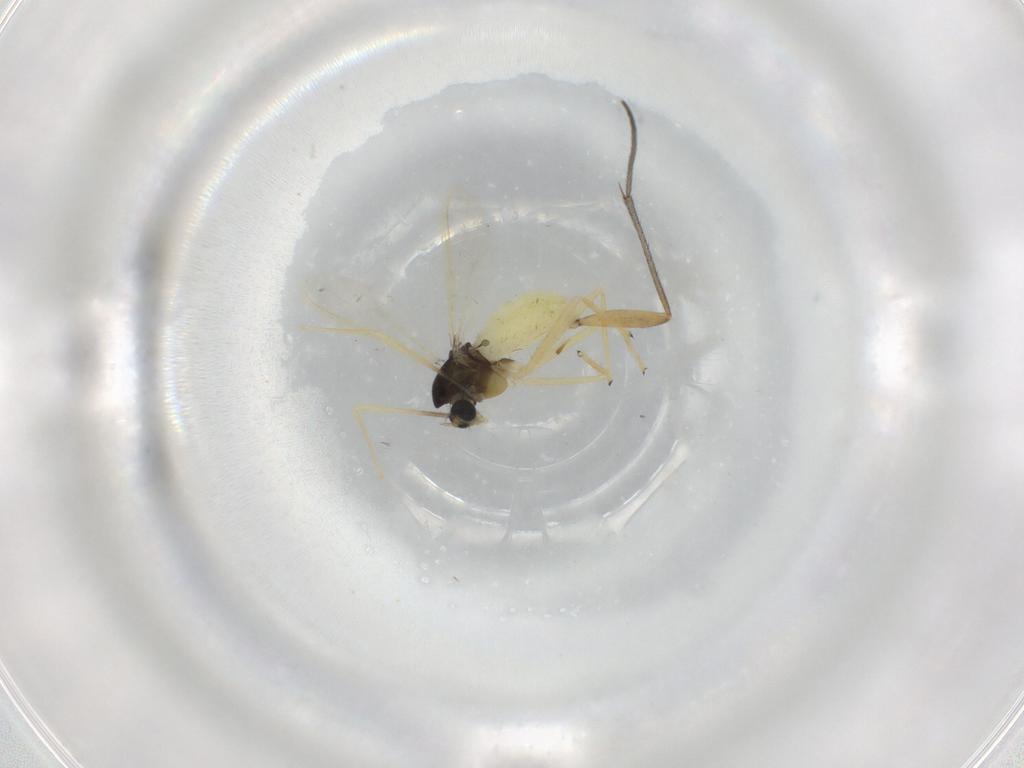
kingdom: Animalia
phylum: Arthropoda
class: Insecta
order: Diptera
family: Chironomidae
